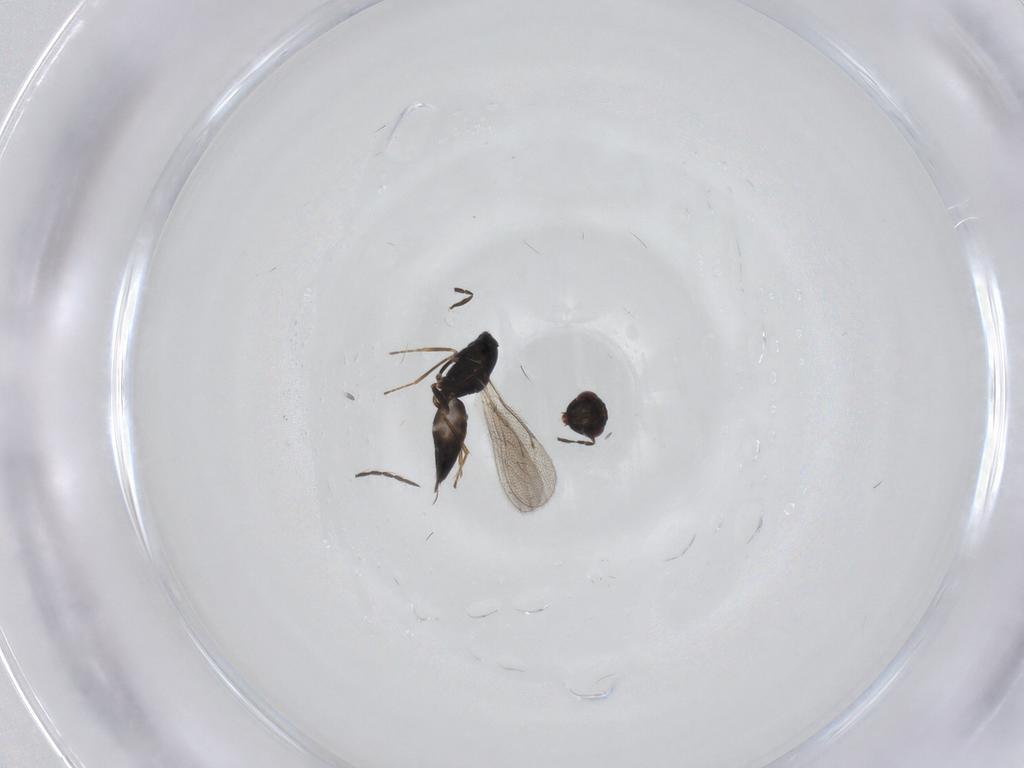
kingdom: Animalia
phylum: Arthropoda
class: Insecta
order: Hymenoptera
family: Eulophidae
